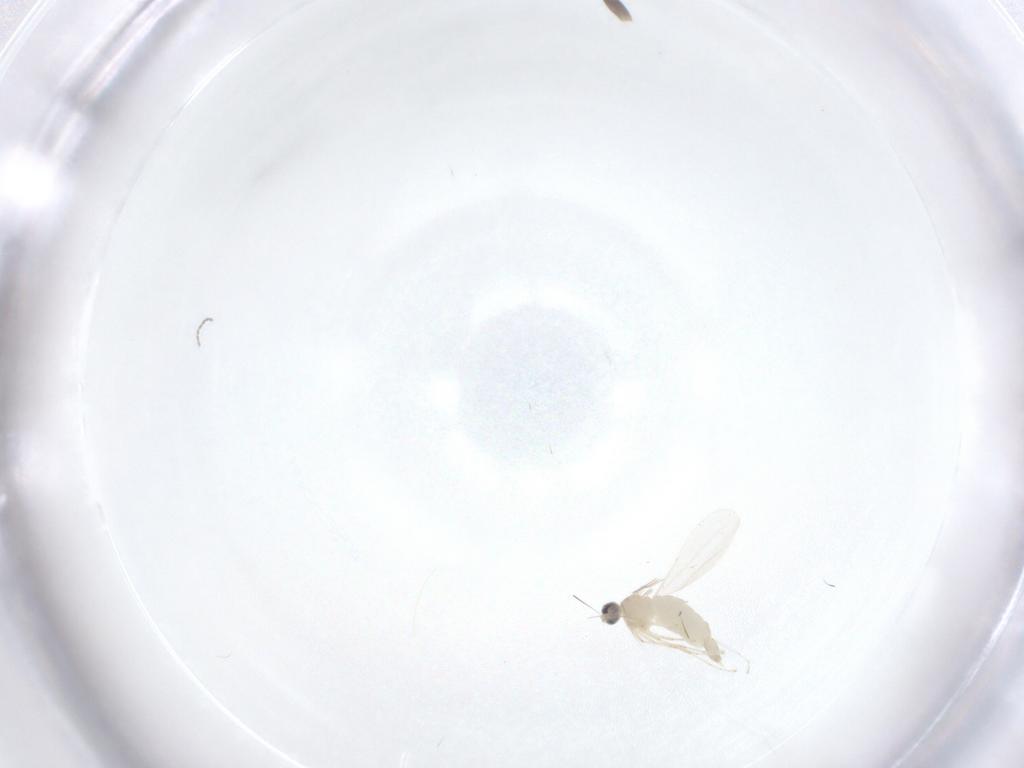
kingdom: Animalia
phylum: Arthropoda
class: Insecta
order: Diptera
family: Cecidomyiidae
